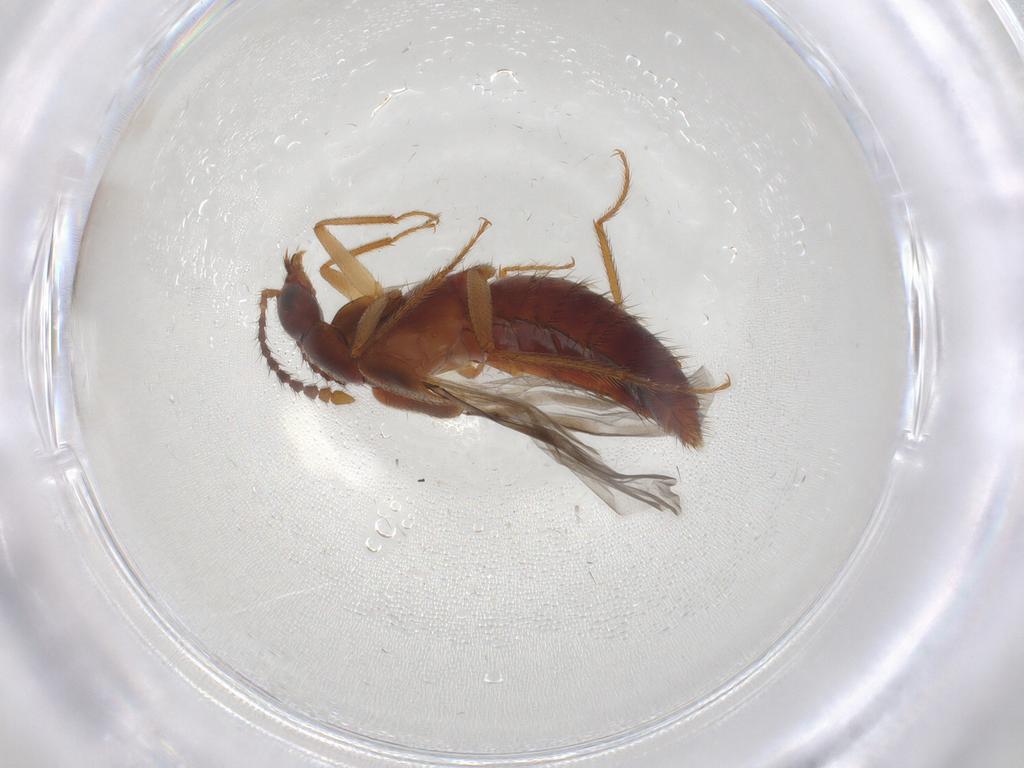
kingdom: Animalia
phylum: Arthropoda
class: Insecta
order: Coleoptera
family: Staphylinidae
